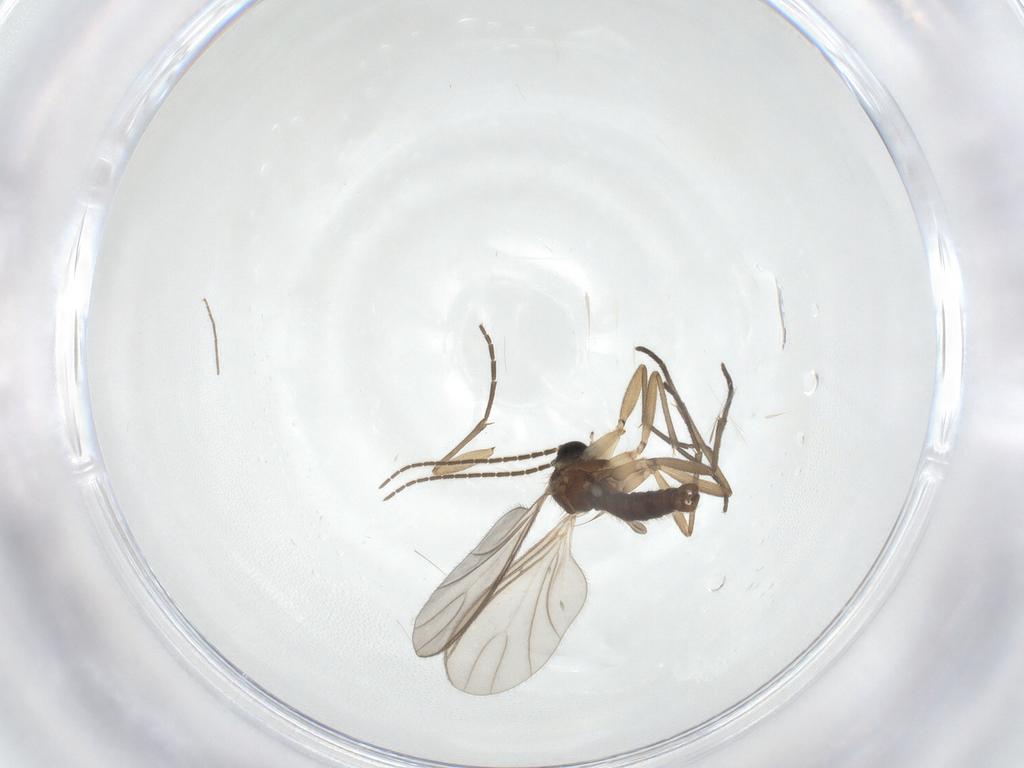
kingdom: Animalia
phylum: Arthropoda
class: Insecta
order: Diptera
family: Sciaridae
